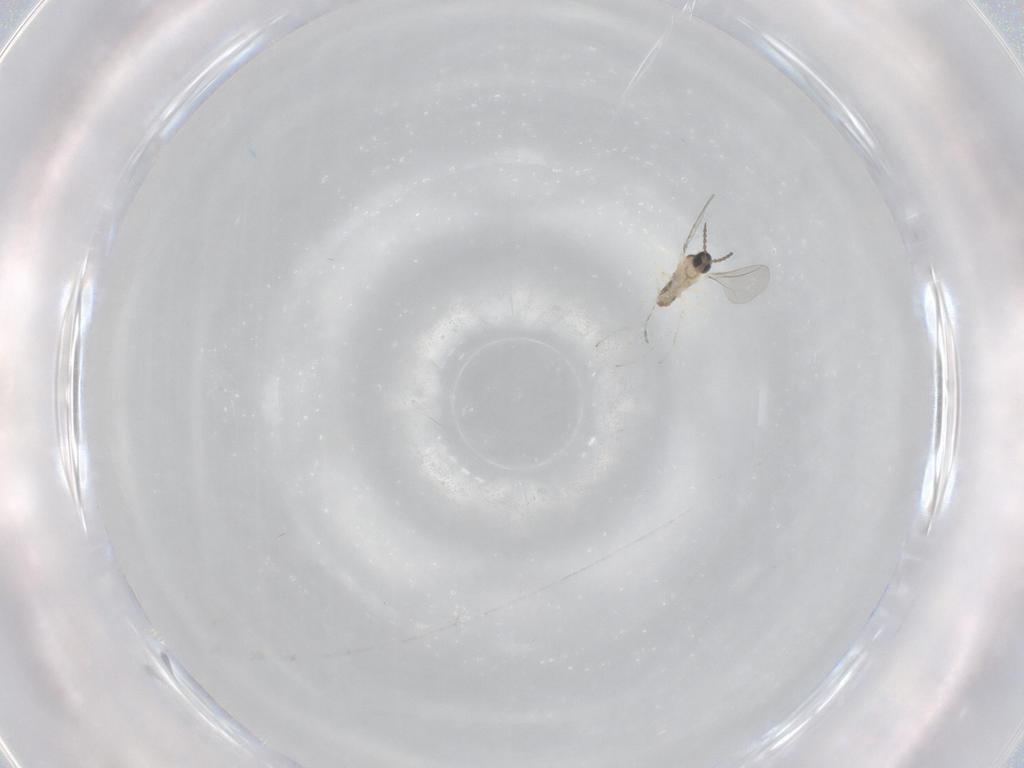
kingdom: Animalia
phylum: Arthropoda
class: Insecta
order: Diptera
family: Cecidomyiidae
